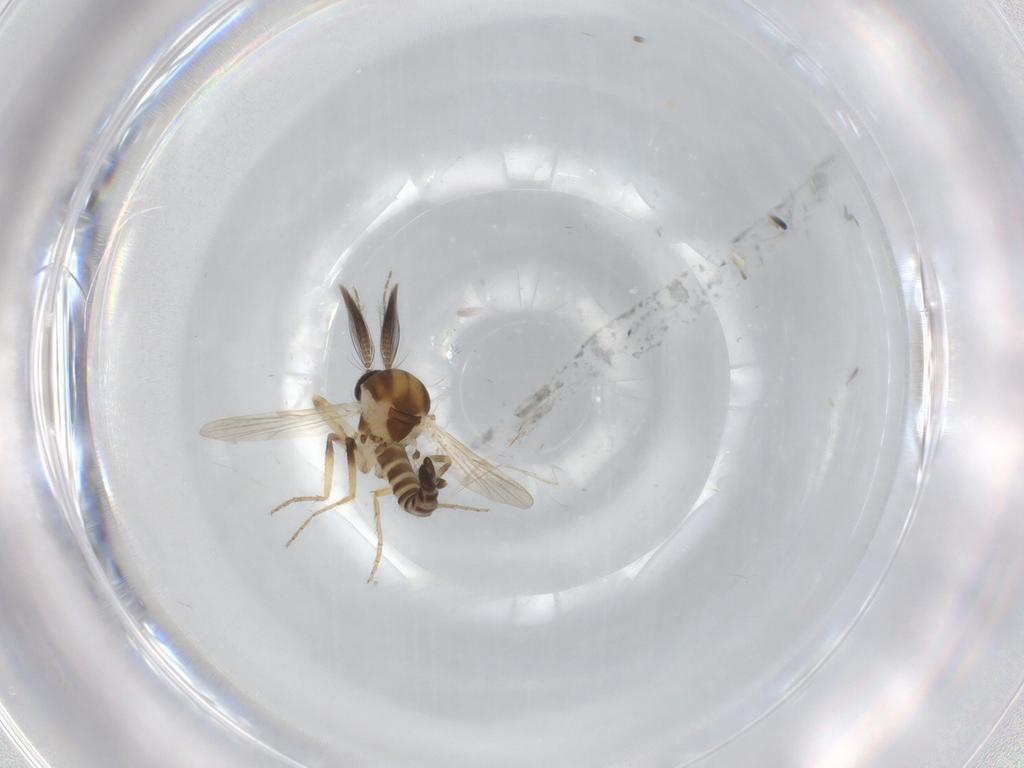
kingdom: Animalia
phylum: Arthropoda
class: Insecta
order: Diptera
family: Ceratopogonidae
